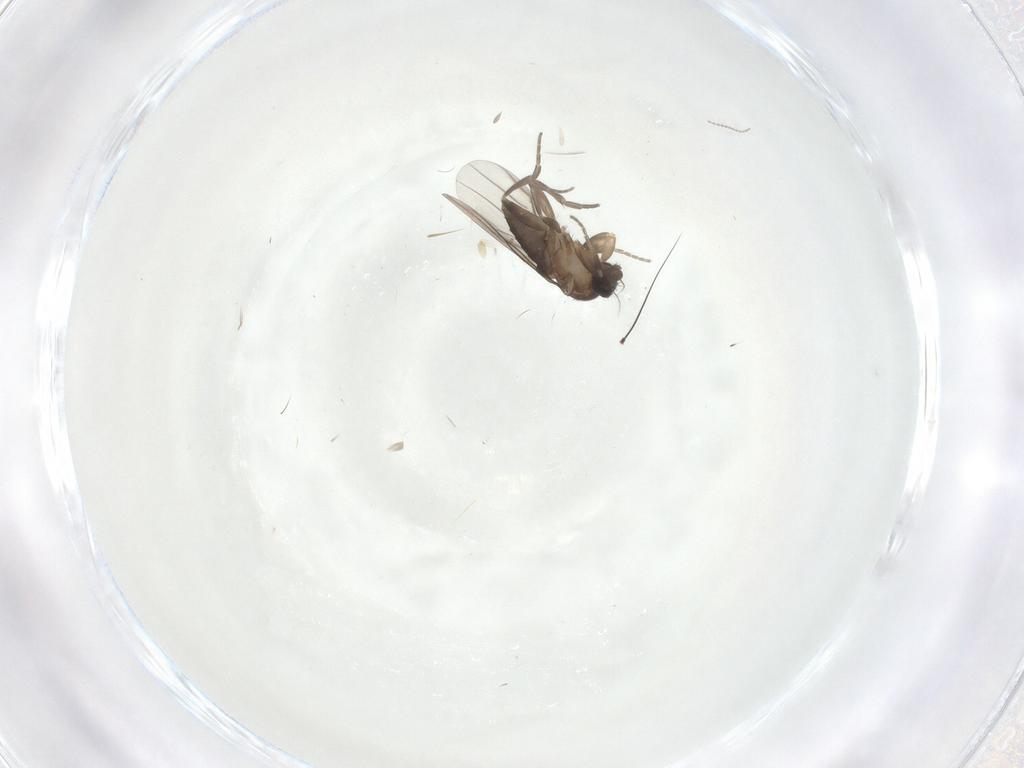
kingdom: Animalia
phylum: Arthropoda
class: Insecta
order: Diptera
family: Phoridae
